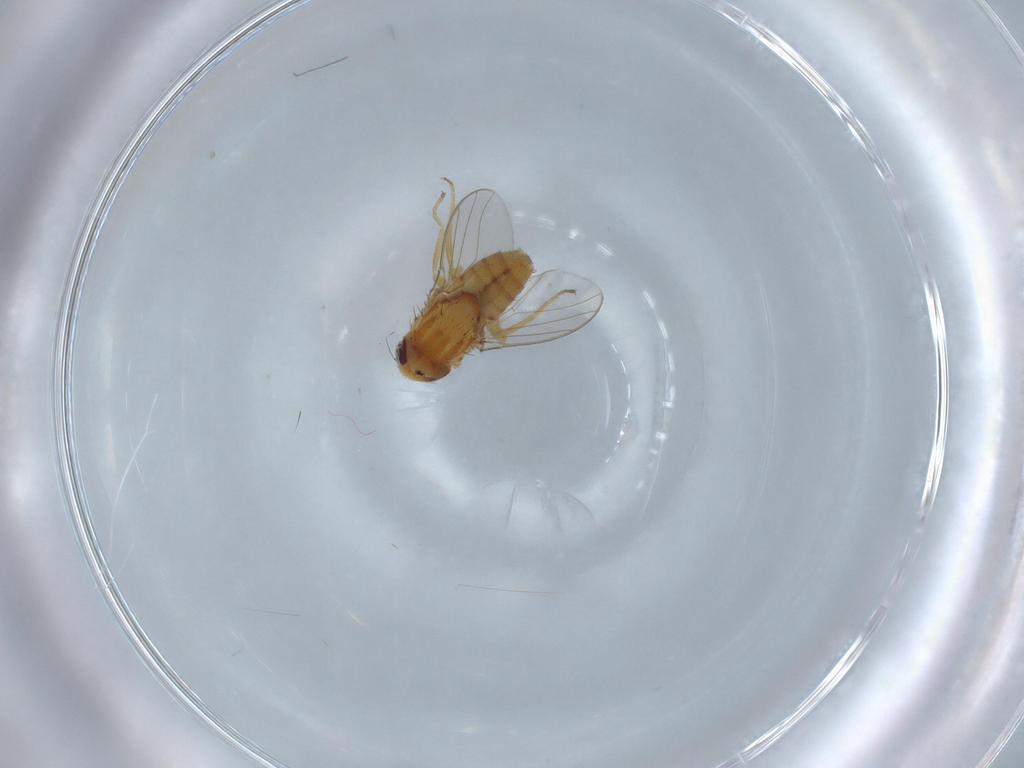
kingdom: Animalia
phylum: Arthropoda
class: Insecta
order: Diptera
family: Chloropidae
